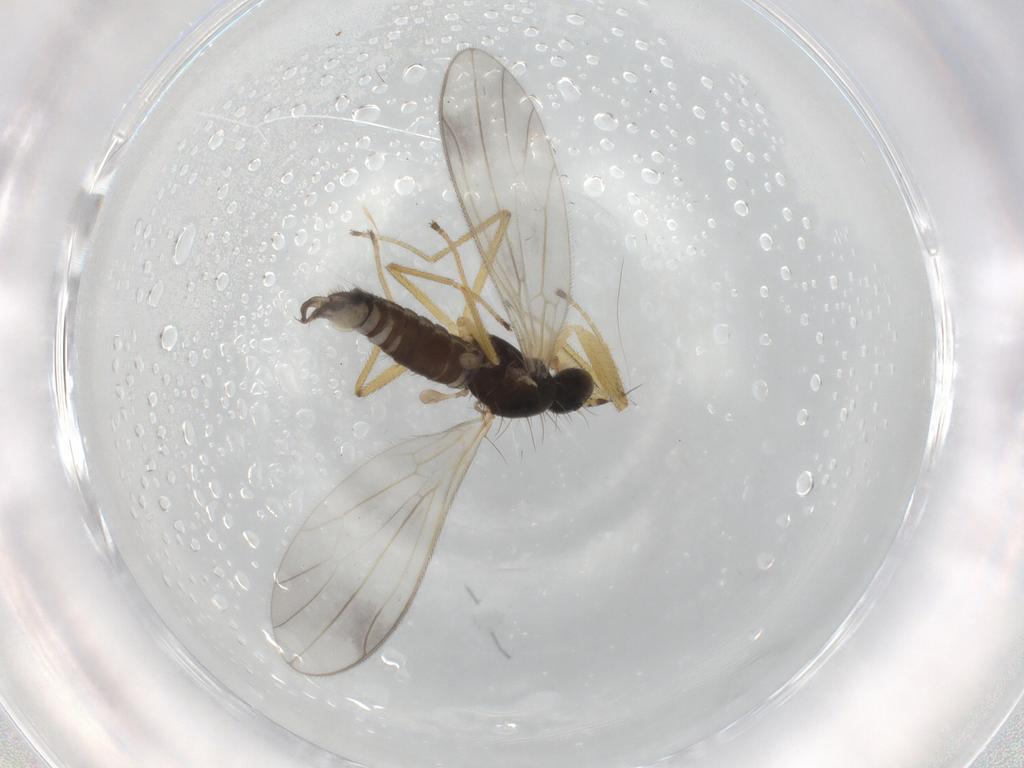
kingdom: Animalia
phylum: Arthropoda
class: Insecta
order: Diptera
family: Empididae
